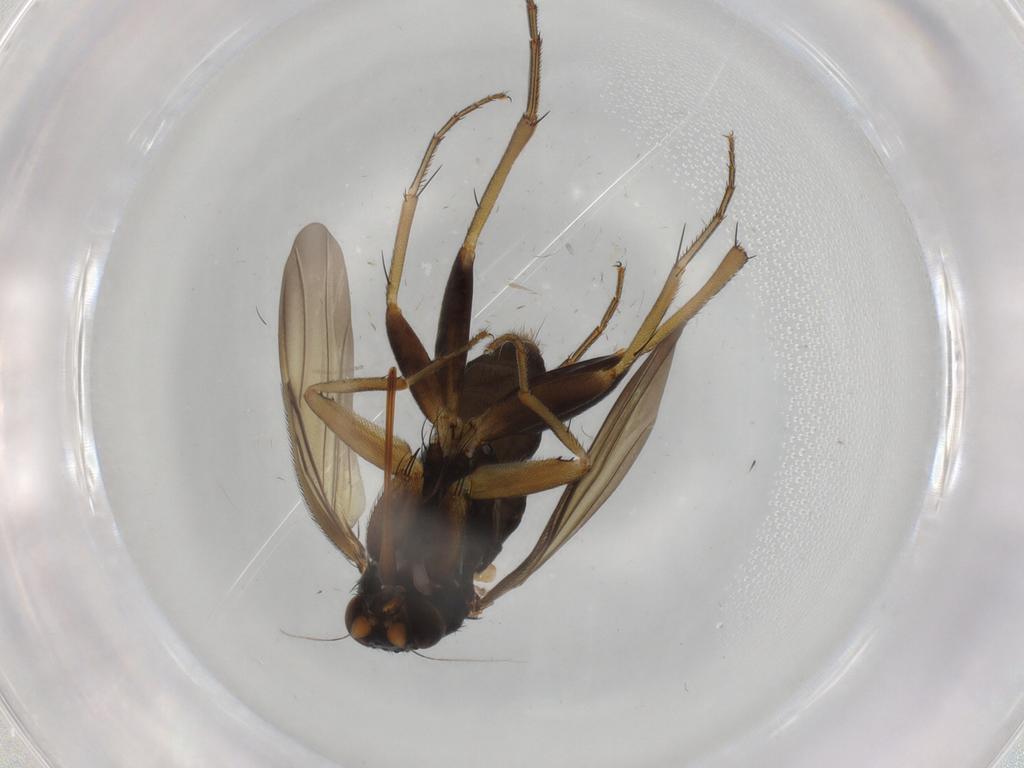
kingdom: Animalia
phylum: Arthropoda
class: Insecta
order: Diptera
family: Phoridae
